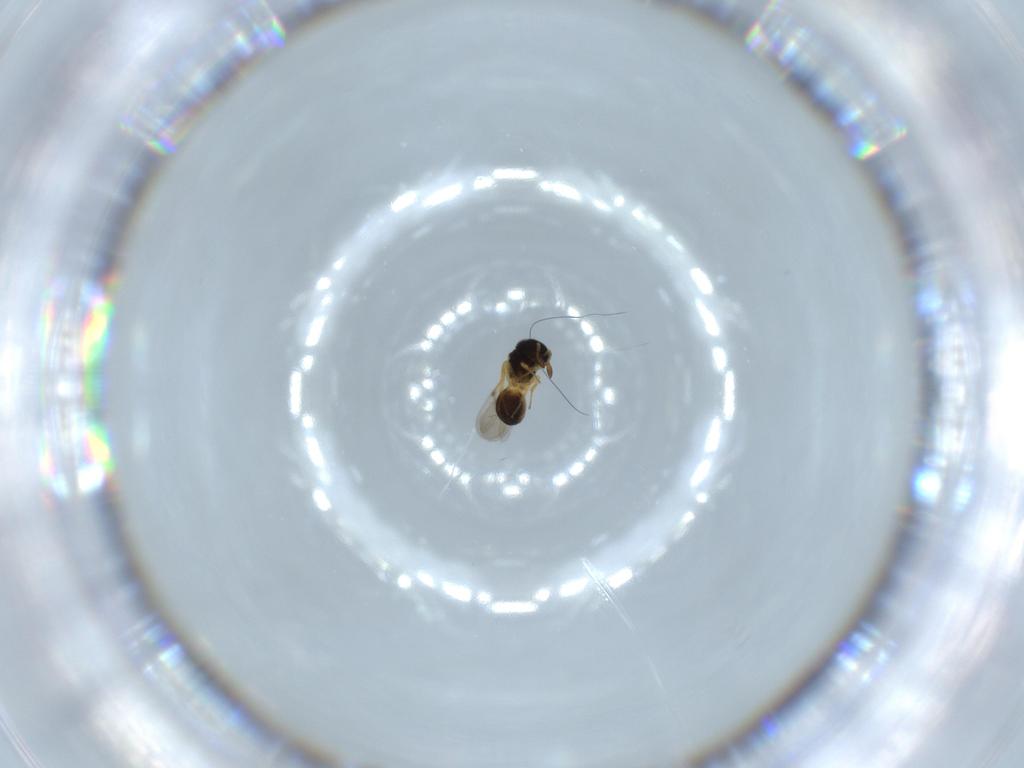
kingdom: Animalia
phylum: Arthropoda
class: Insecta
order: Hymenoptera
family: Scelionidae
